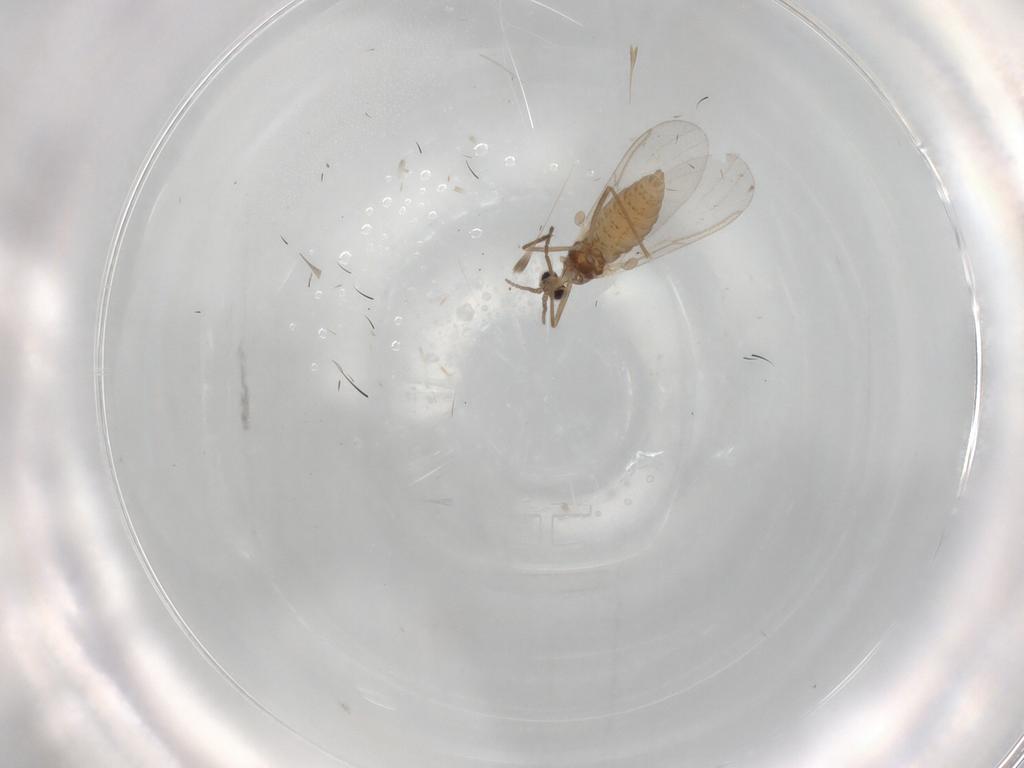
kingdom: Animalia
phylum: Arthropoda
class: Insecta
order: Diptera
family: Cecidomyiidae
